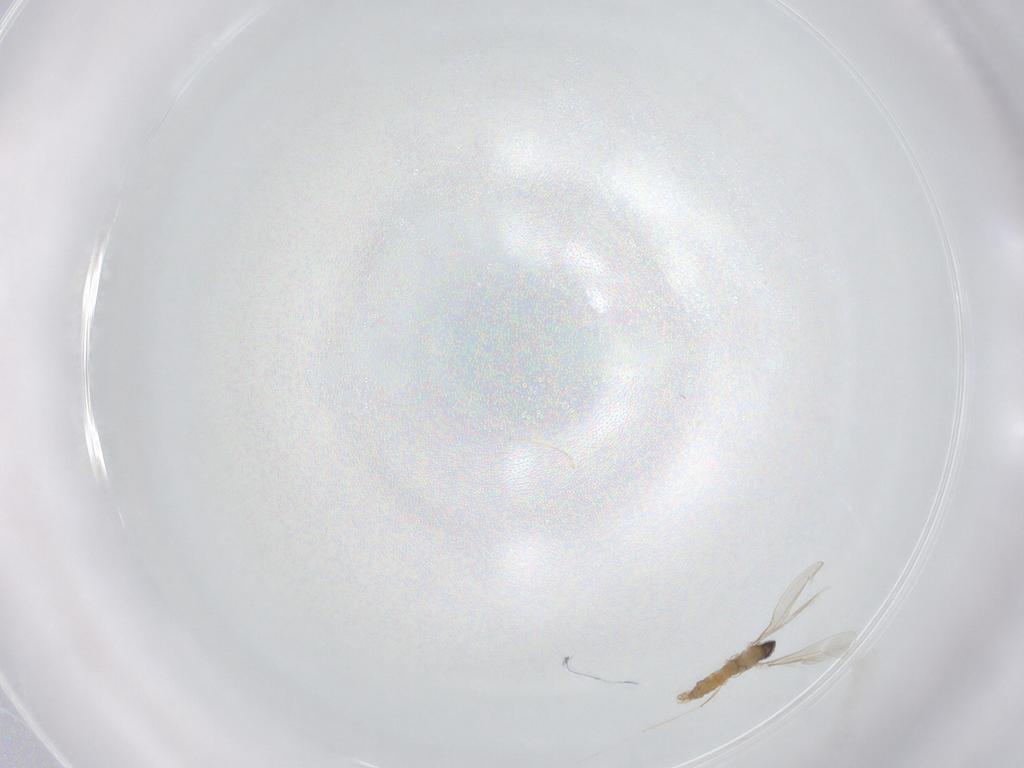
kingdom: Animalia
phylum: Arthropoda
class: Insecta
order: Diptera
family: Cecidomyiidae
